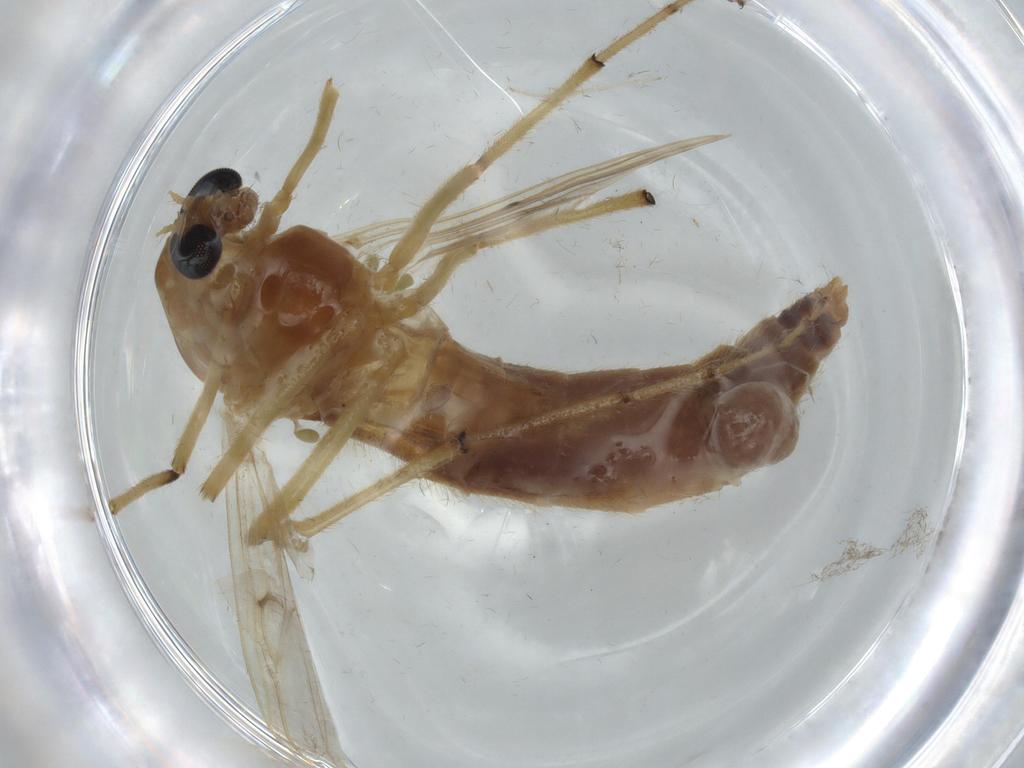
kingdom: Animalia
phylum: Arthropoda
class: Insecta
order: Diptera
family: Chironomidae
